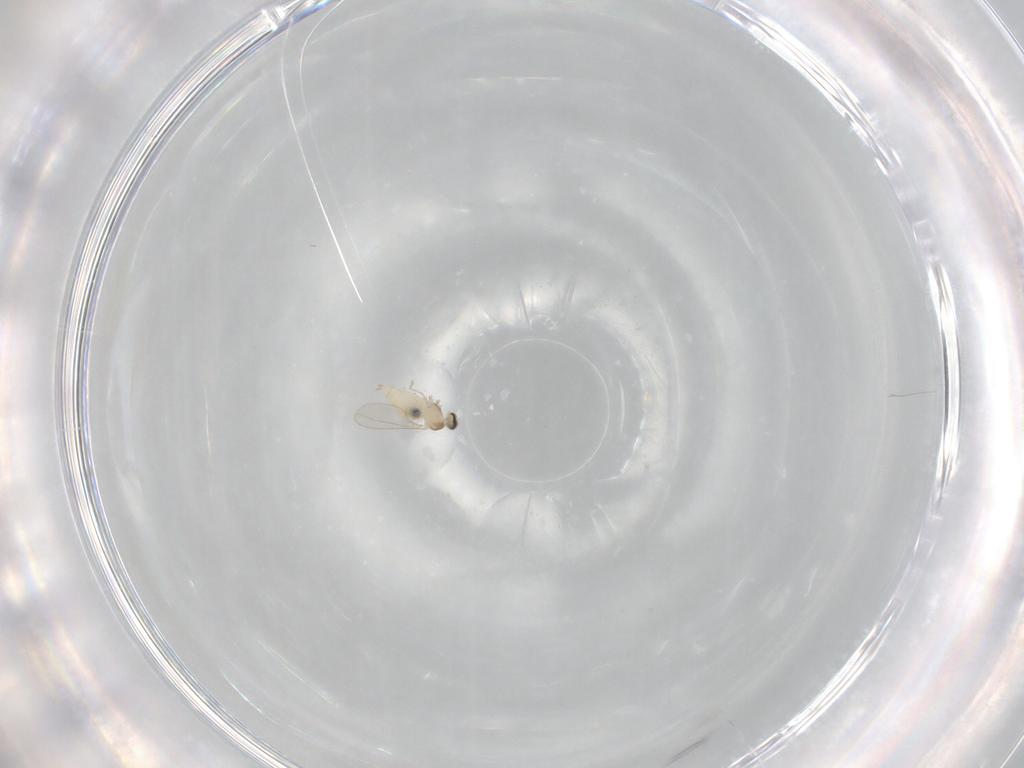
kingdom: Animalia
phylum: Arthropoda
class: Insecta
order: Diptera
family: Cecidomyiidae
